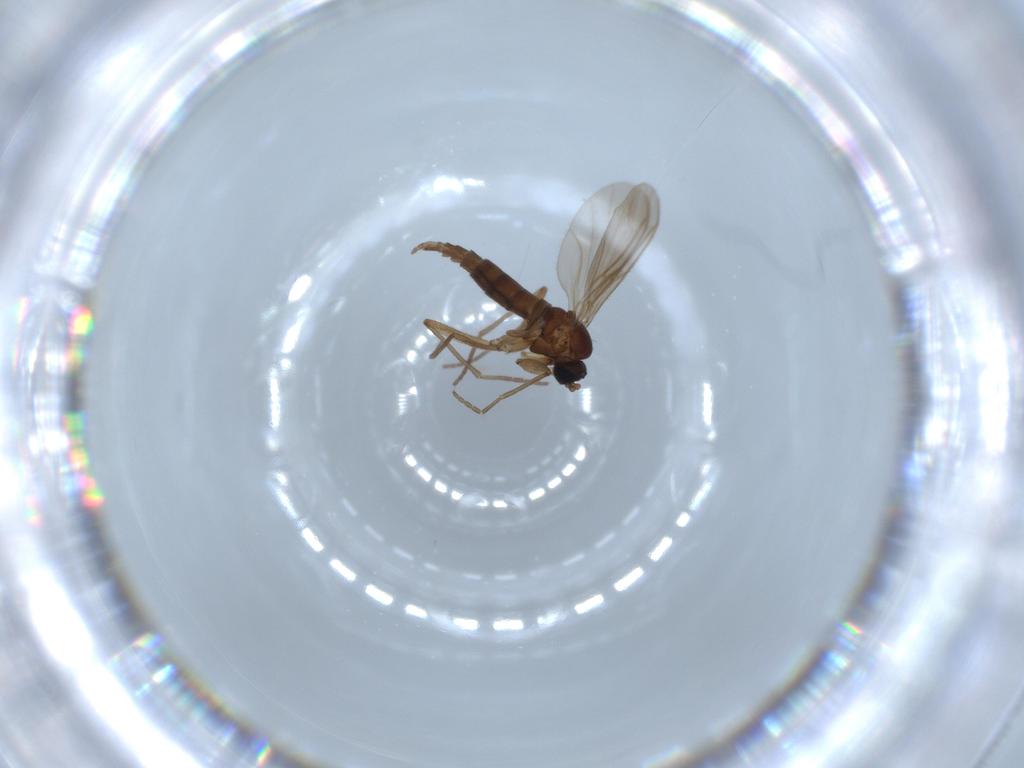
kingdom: Animalia
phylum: Arthropoda
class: Insecta
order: Diptera
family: Sciaridae
